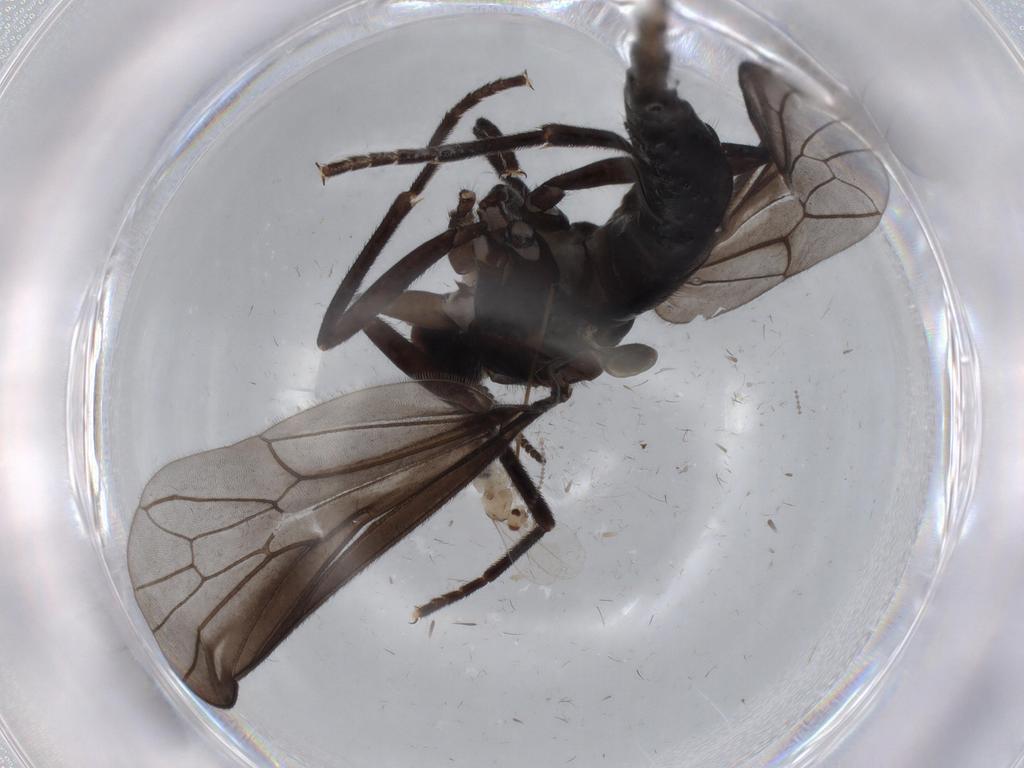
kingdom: Animalia
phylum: Arthropoda
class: Insecta
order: Diptera
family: Xylophagidae
